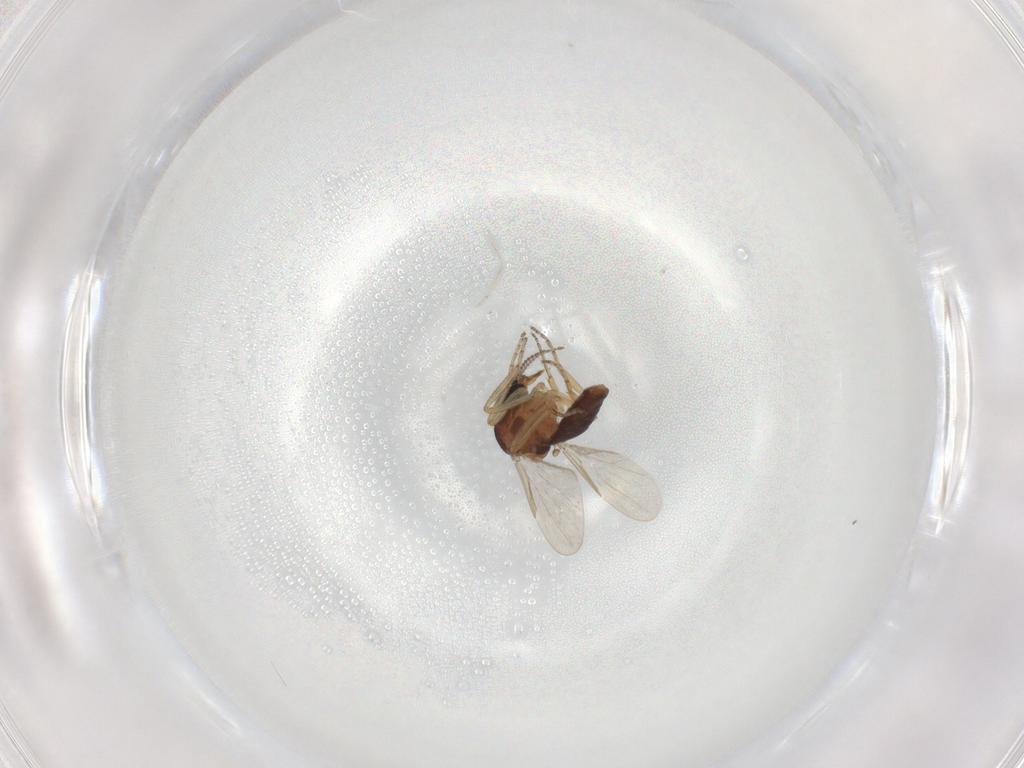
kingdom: Animalia
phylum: Arthropoda
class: Insecta
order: Diptera
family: Ceratopogonidae
